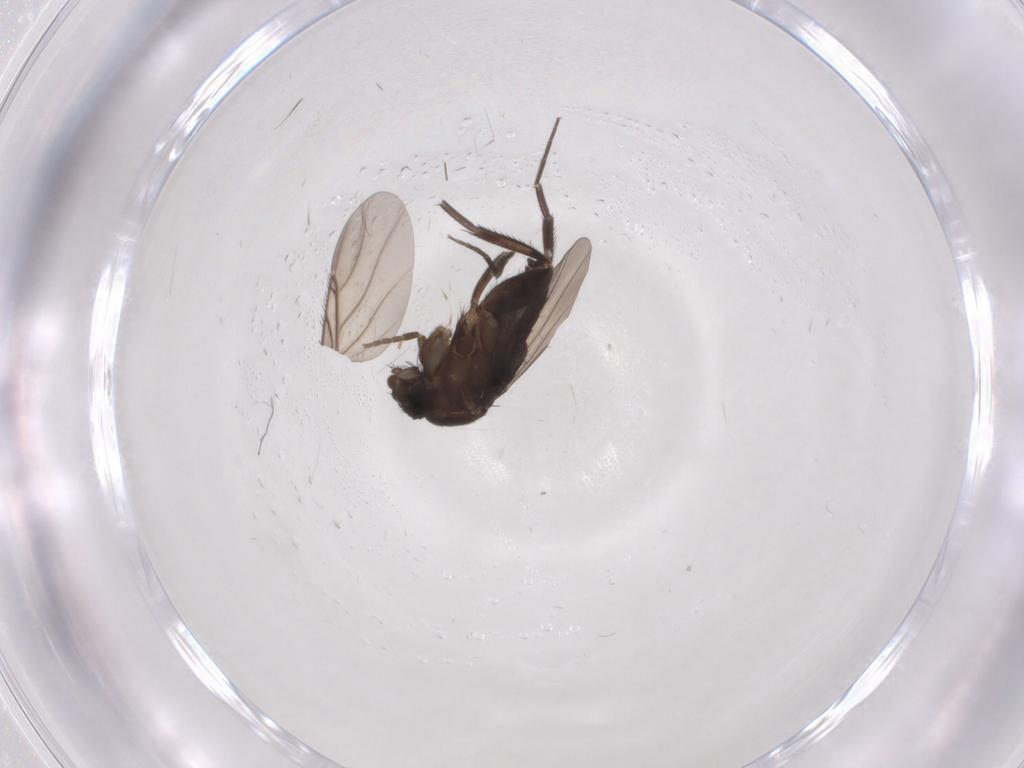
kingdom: Animalia
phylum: Arthropoda
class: Insecta
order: Diptera
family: Phoridae
